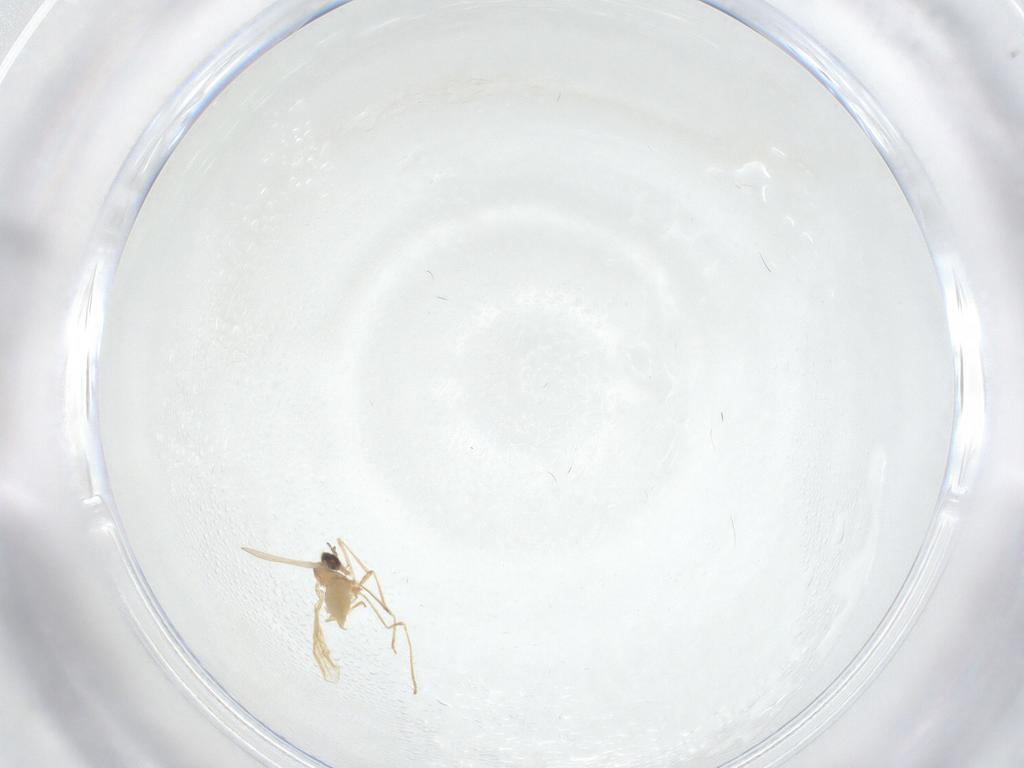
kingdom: Animalia
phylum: Arthropoda
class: Insecta
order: Diptera
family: Cecidomyiidae
